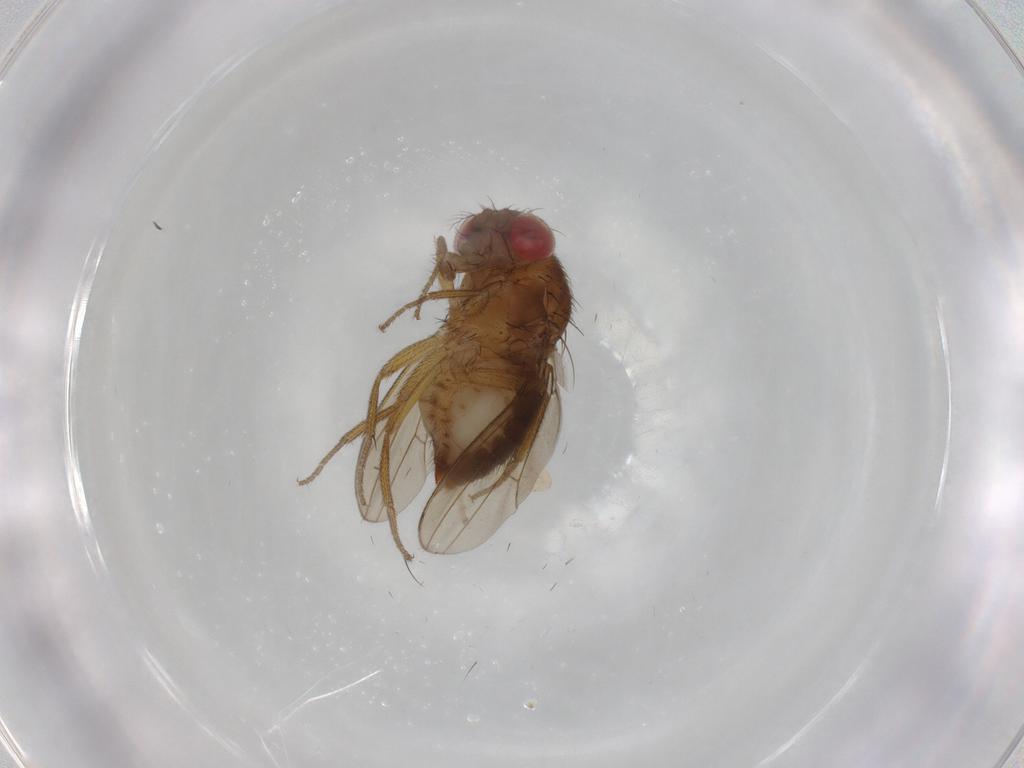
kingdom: Animalia
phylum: Arthropoda
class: Insecta
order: Diptera
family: Drosophilidae
